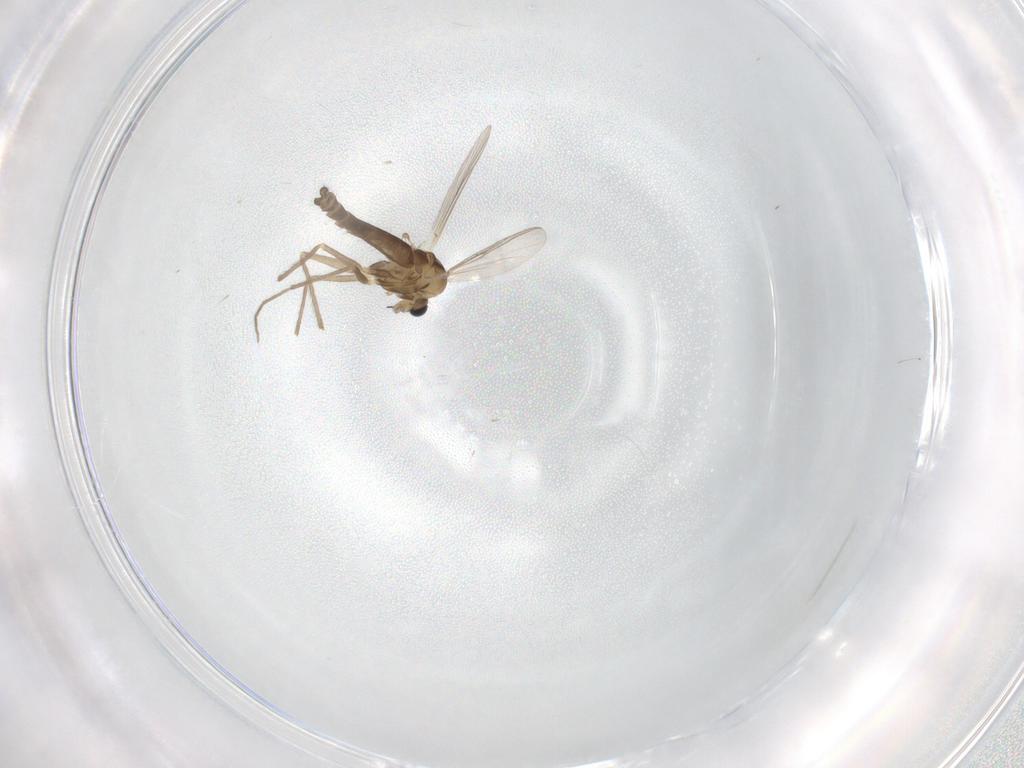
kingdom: Animalia
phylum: Arthropoda
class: Insecta
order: Diptera
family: Chironomidae
